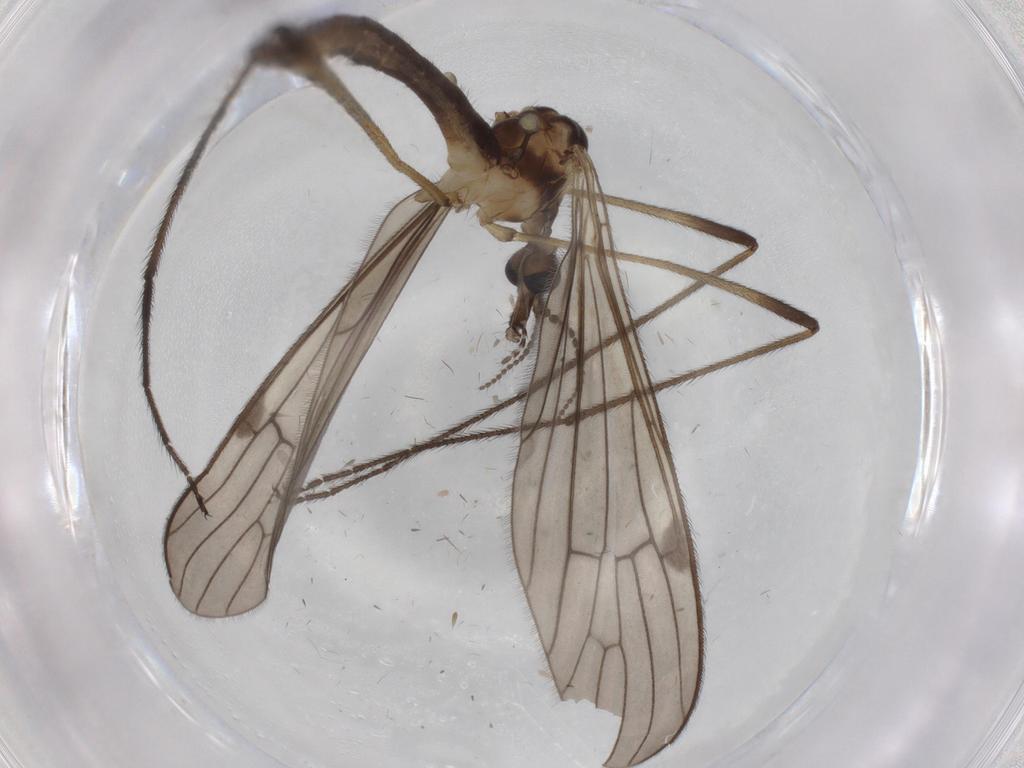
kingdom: Animalia
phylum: Arthropoda
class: Insecta
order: Diptera
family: Limoniidae
